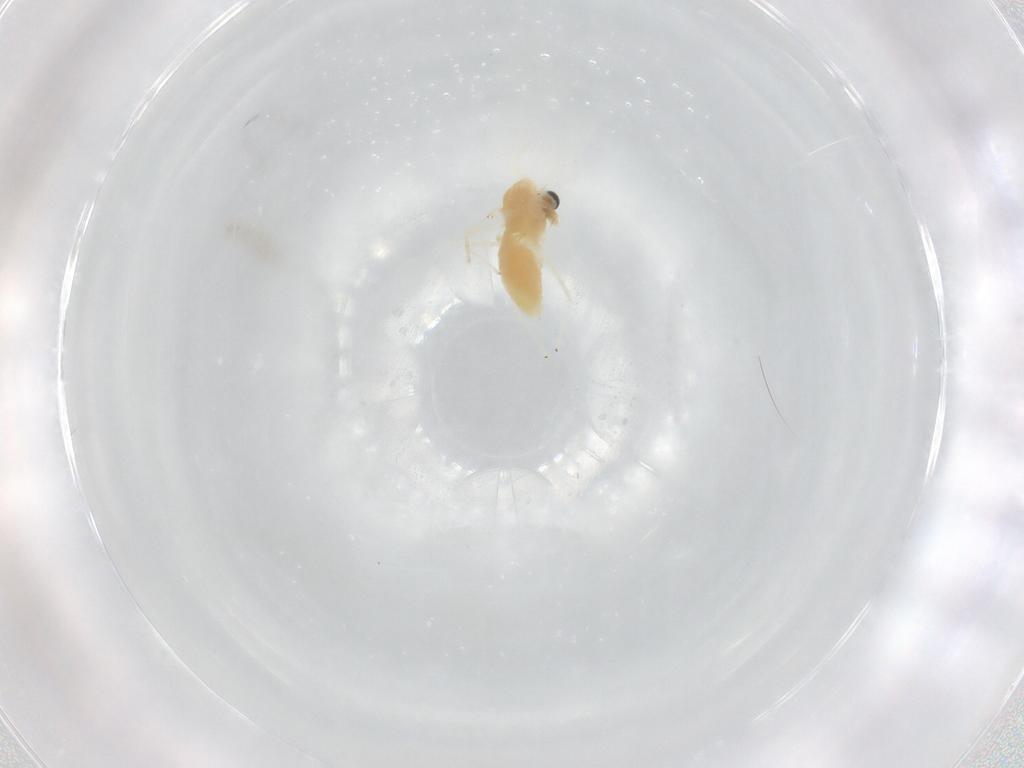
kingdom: Animalia
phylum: Arthropoda
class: Insecta
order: Diptera
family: Chironomidae
